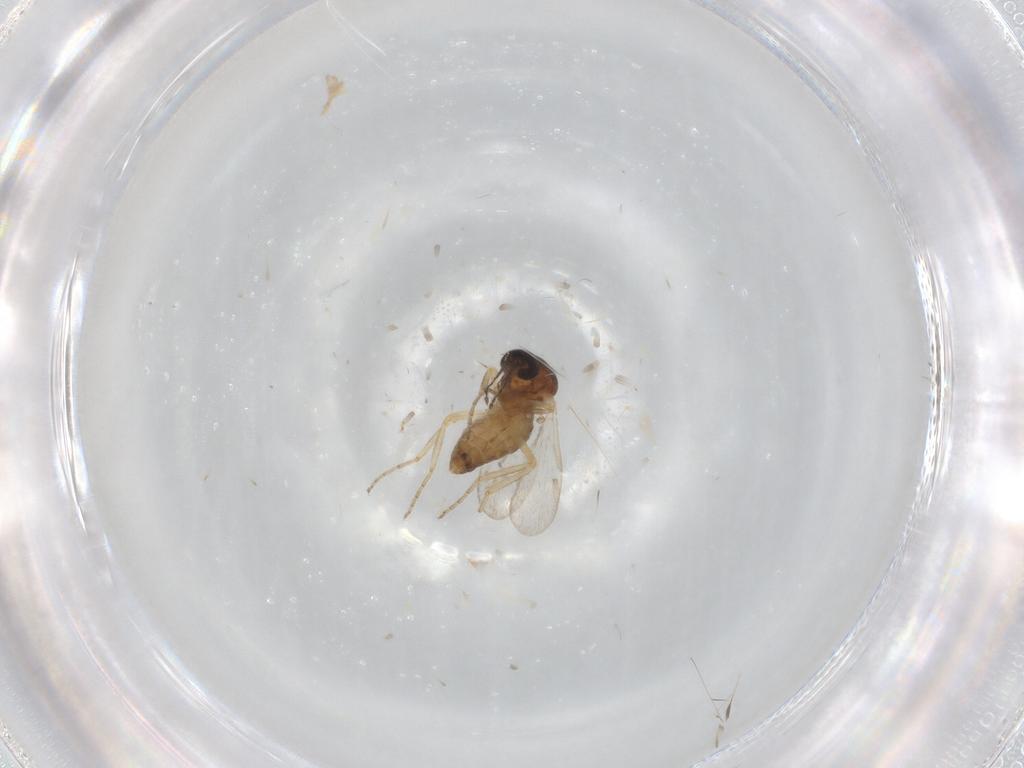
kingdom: Animalia
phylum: Arthropoda
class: Insecta
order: Diptera
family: Ceratopogonidae
